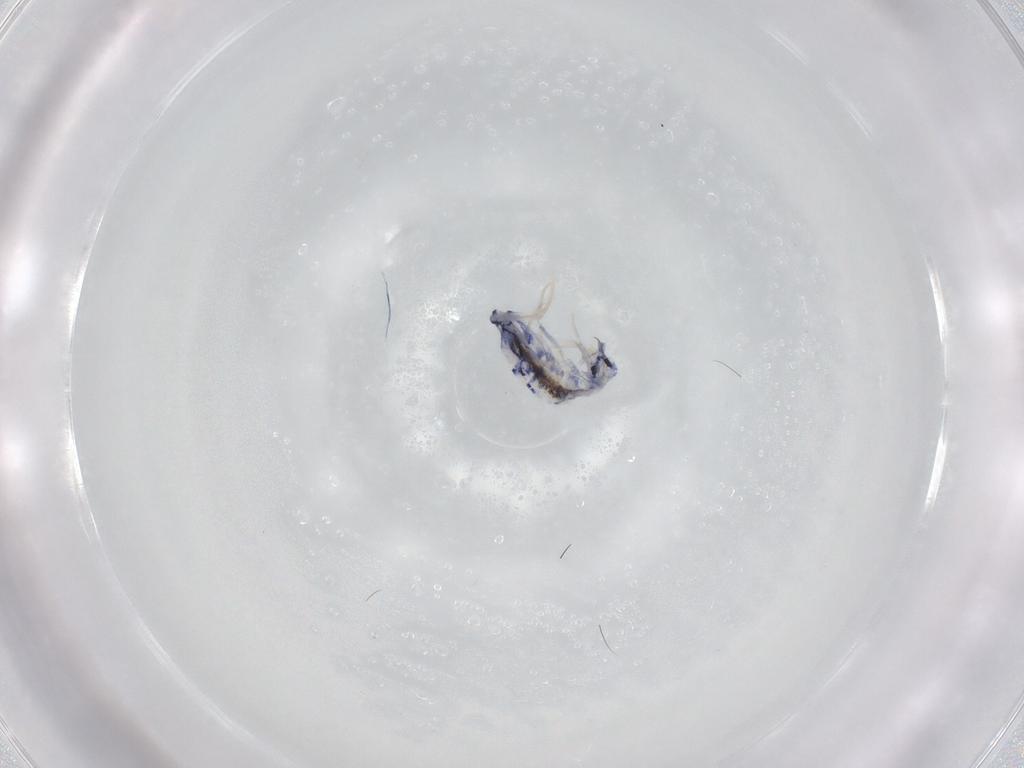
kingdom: Animalia
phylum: Arthropoda
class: Collembola
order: Entomobryomorpha
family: Entomobryidae
